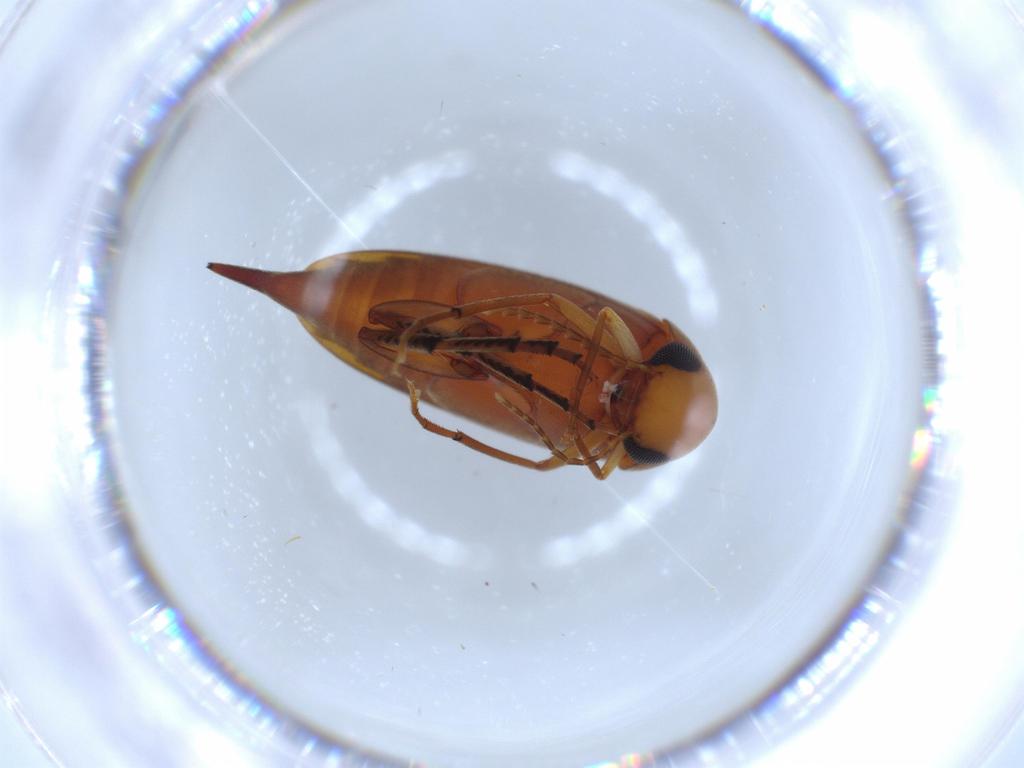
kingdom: Animalia
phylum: Arthropoda
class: Insecta
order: Coleoptera
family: Mordellidae
